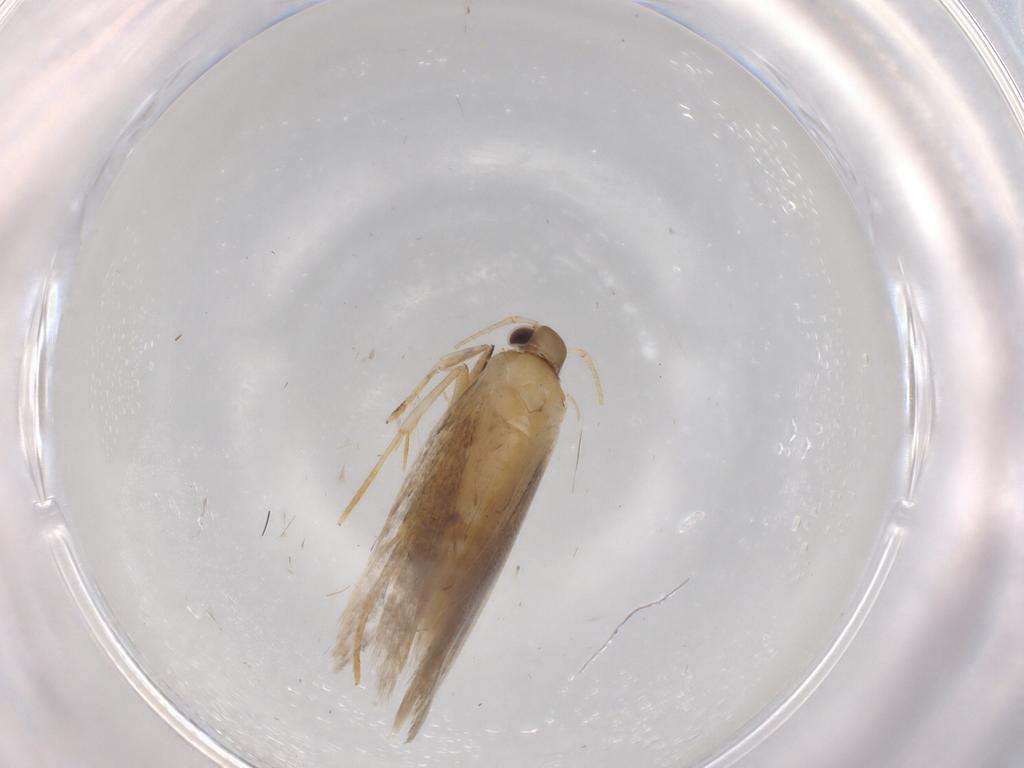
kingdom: Animalia
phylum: Arthropoda
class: Insecta
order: Lepidoptera
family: Autostichidae
